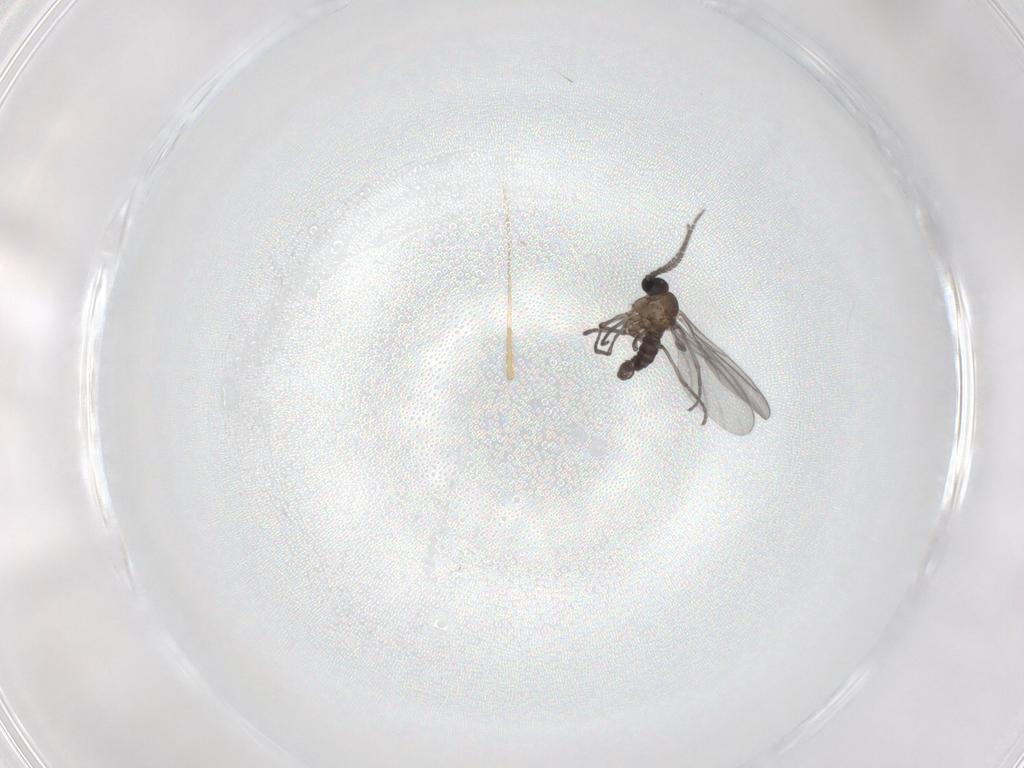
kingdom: Animalia
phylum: Arthropoda
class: Insecta
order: Diptera
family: Sciaridae
